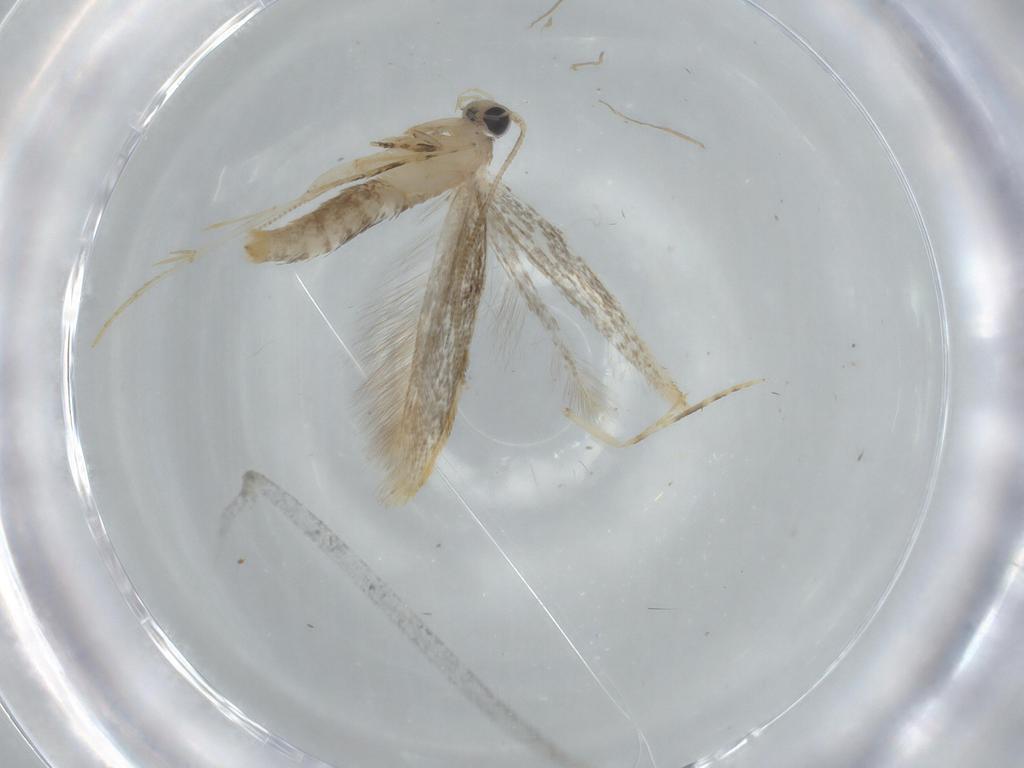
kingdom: Animalia
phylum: Arthropoda
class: Insecta
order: Lepidoptera
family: Tineidae
